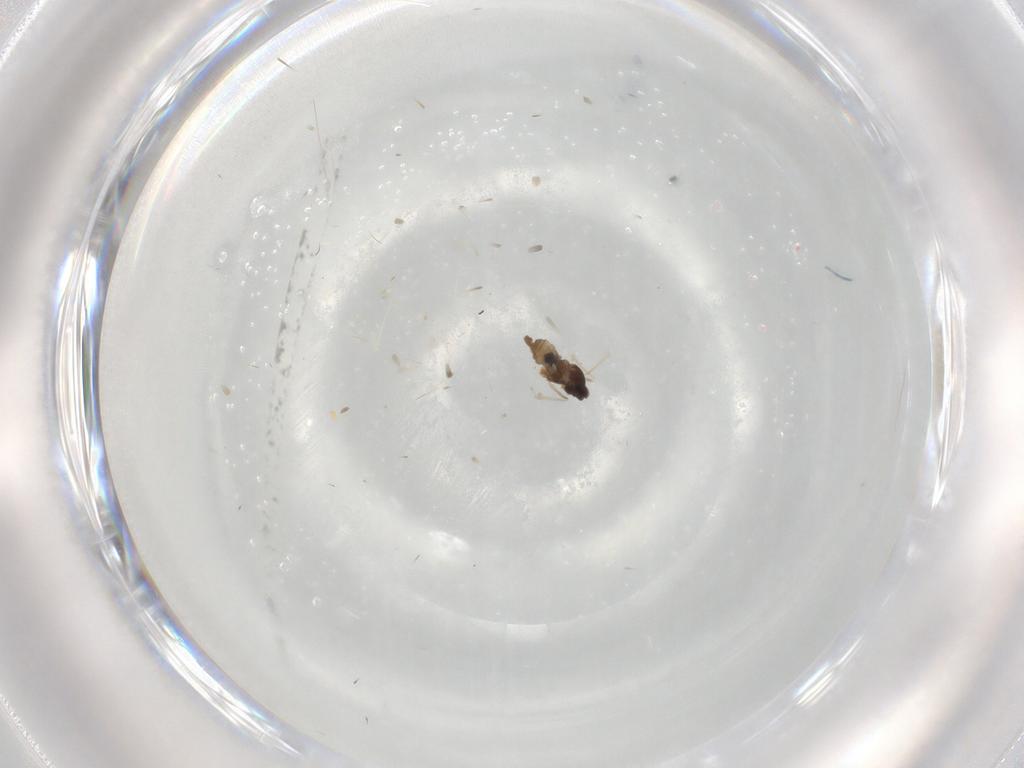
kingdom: Animalia
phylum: Arthropoda
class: Insecta
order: Diptera
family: Cecidomyiidae
